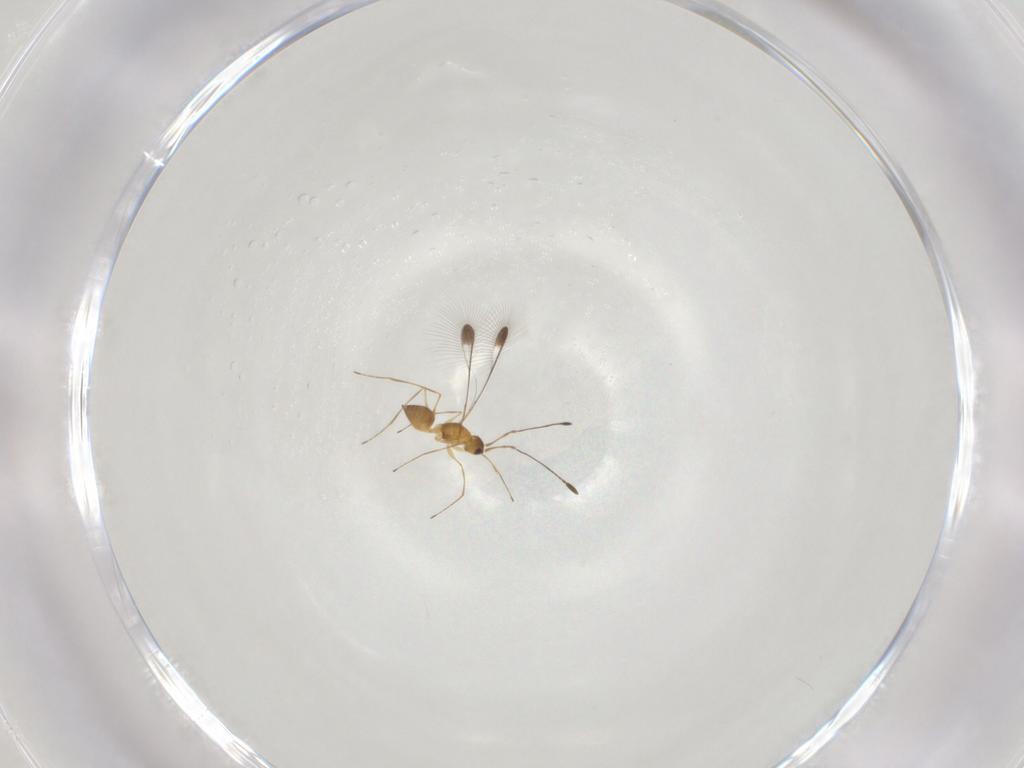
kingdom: Animalia
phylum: Arthropoda
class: Insecta
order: Hymenoptera
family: Mymaridae
